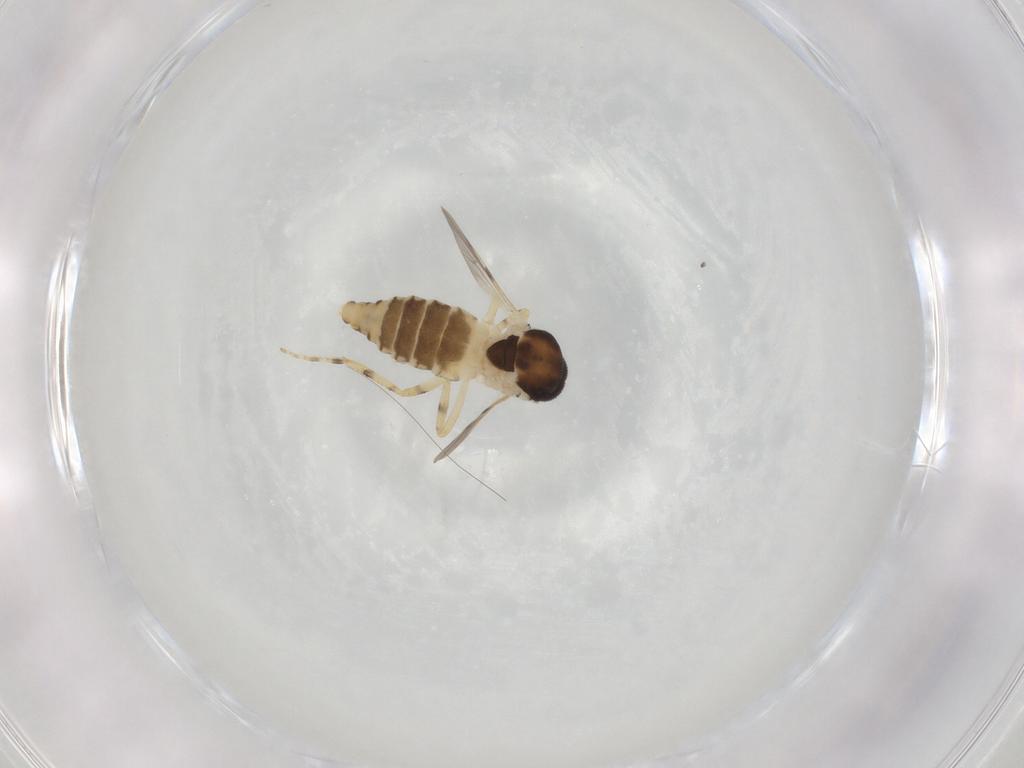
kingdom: Animalia
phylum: Arthropoda
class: Insecta
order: Diptera
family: Ceratopogonidae
